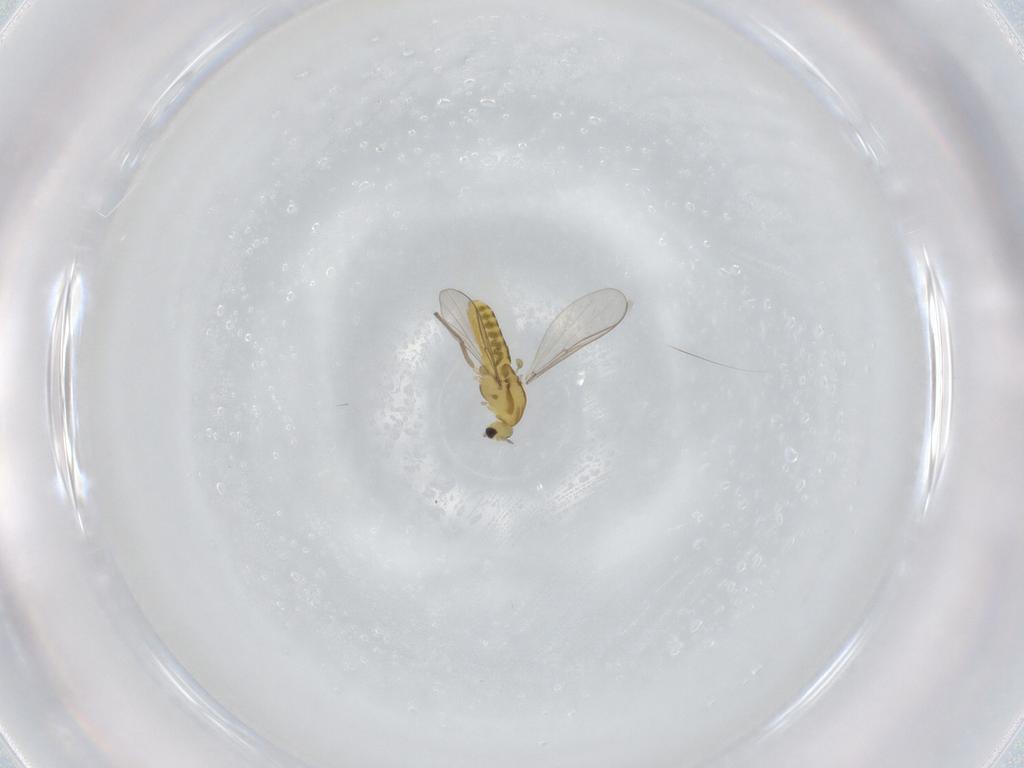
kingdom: Animalia
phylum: Arthropoda
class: Insecta
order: Diptera
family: Chironomidae
